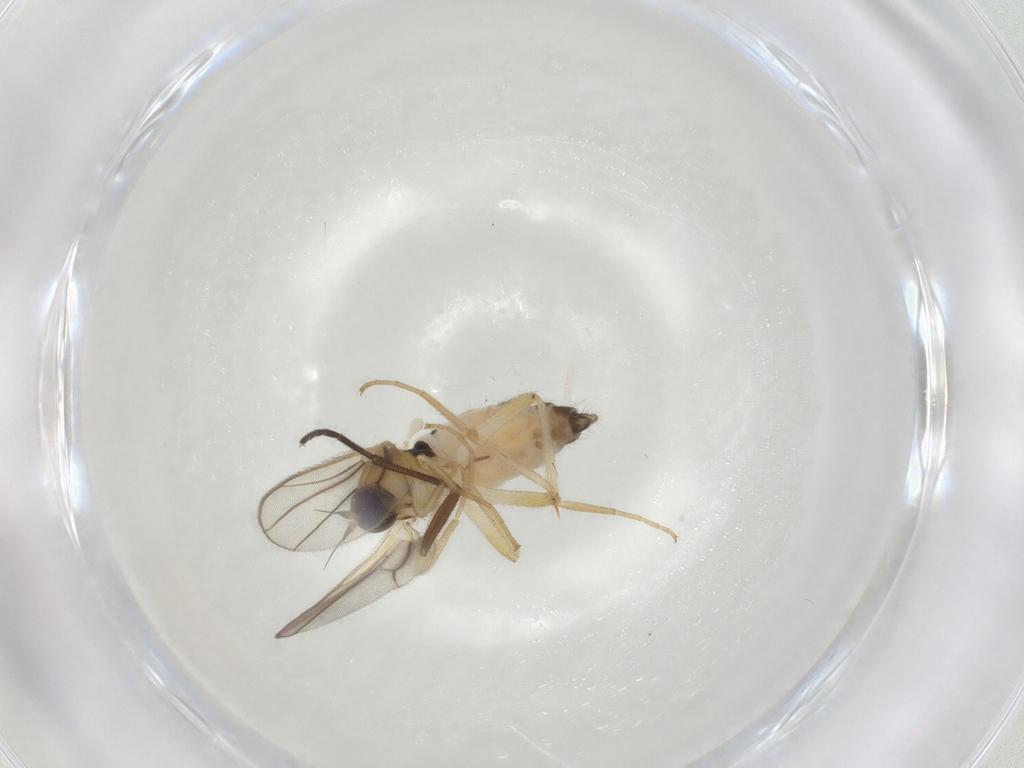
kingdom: Animalia
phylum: Arthropoda
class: Insecta
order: Diptera
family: Hybotidae
